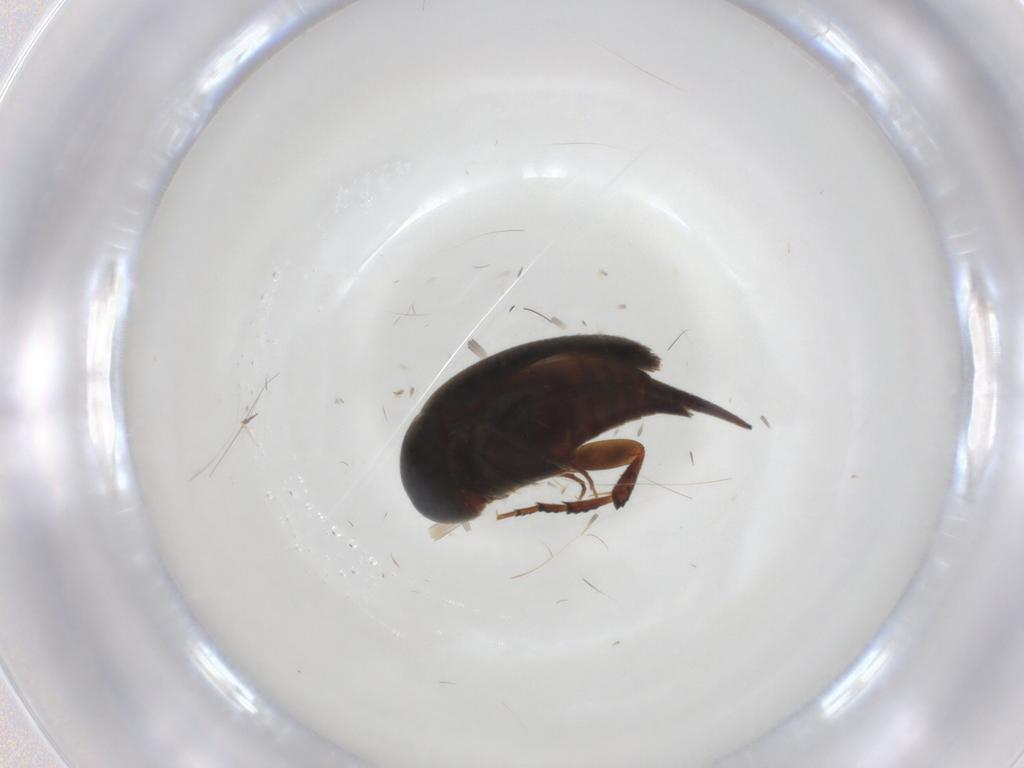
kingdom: Animalia
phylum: Arthropoda
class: Insecta
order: Coleoptera
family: Mordellidae
